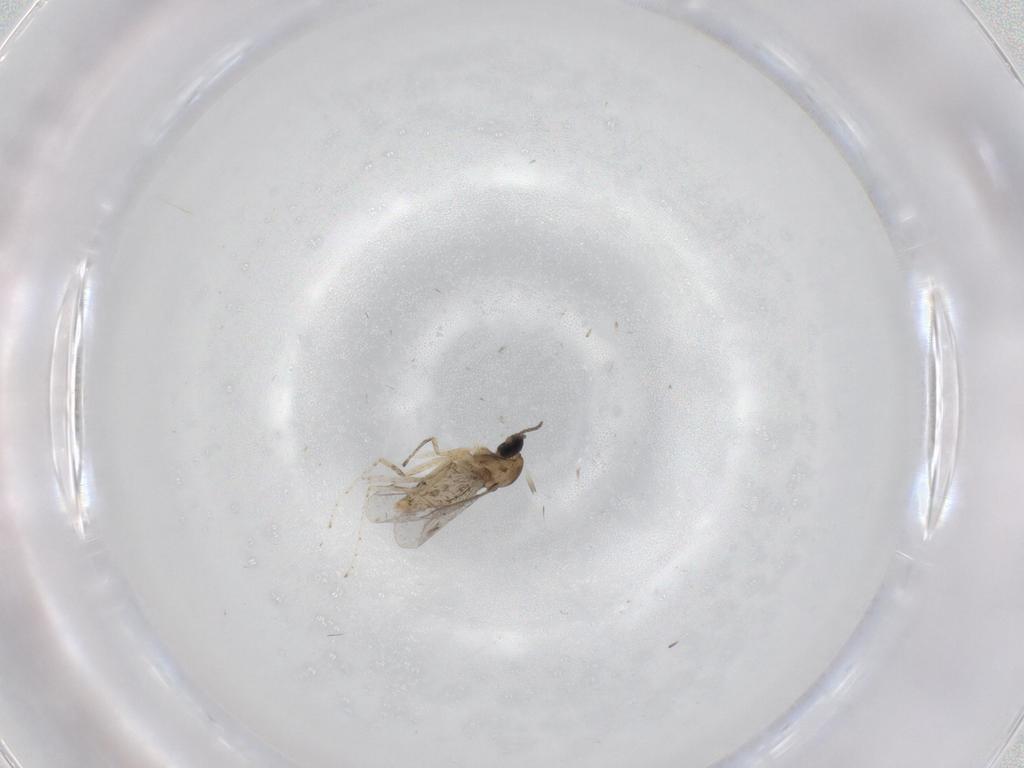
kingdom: Animalia
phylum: Arthropoda
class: Insecta
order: Diptera
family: Cecidomyiidae
